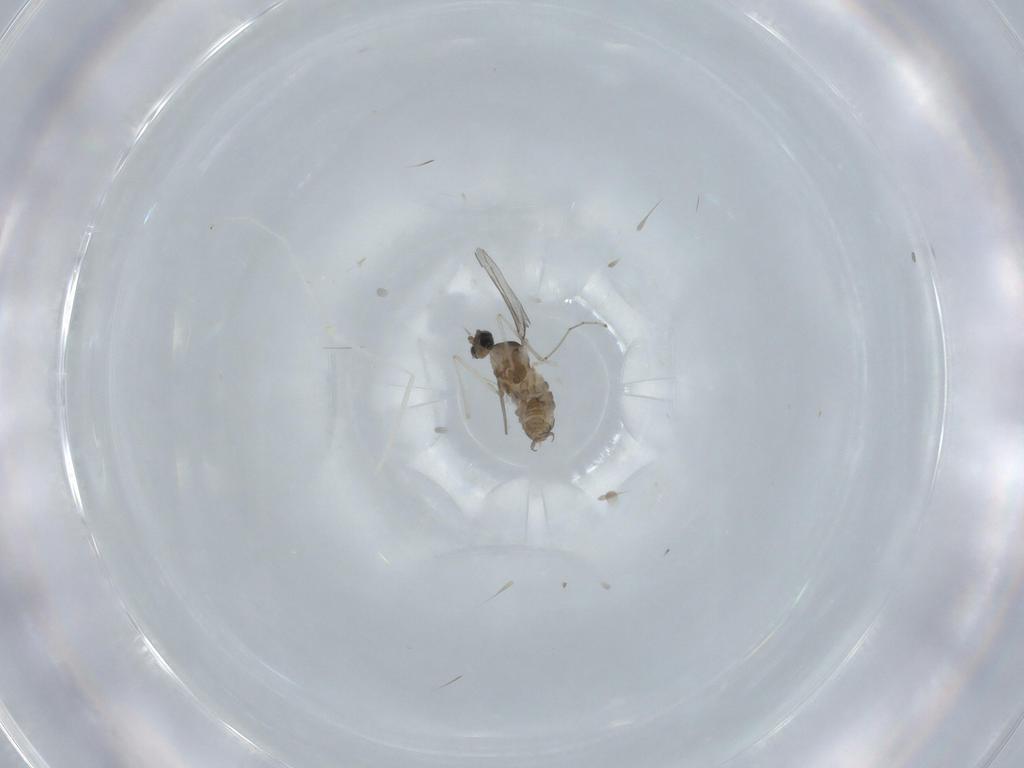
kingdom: Animalia
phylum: Arthropoda
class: Insecta
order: Diptera
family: Cecidomyiidae
